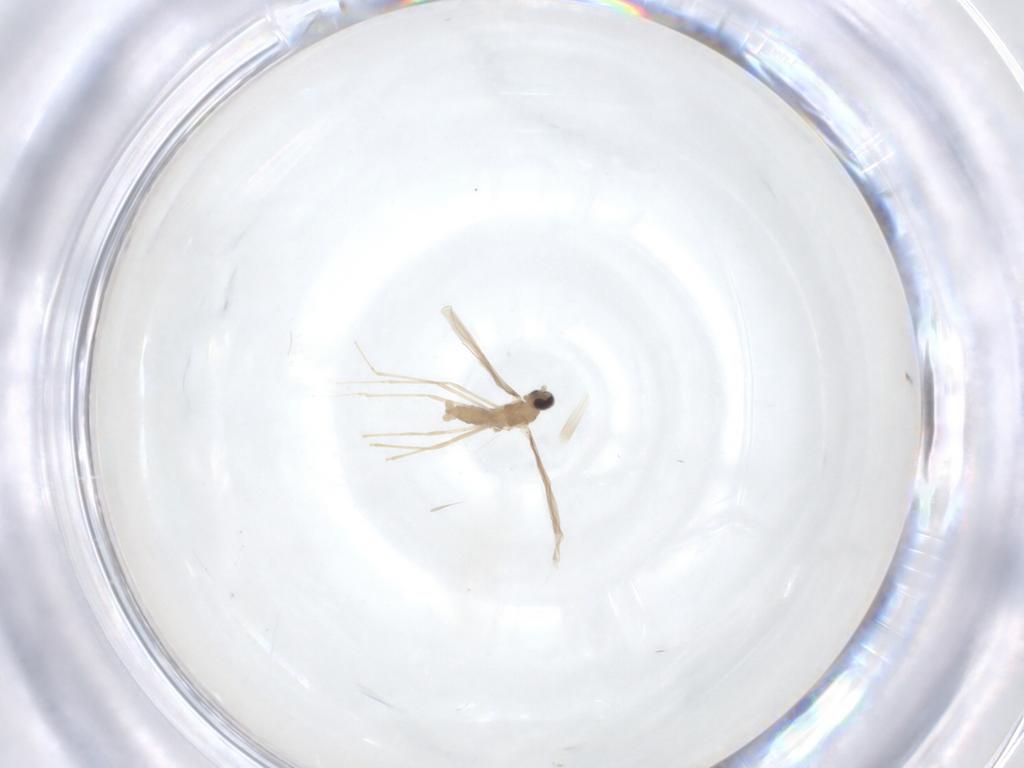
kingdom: Animalia
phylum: Arthropoda
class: Insecta
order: Diptera
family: Cecidomyiidae
